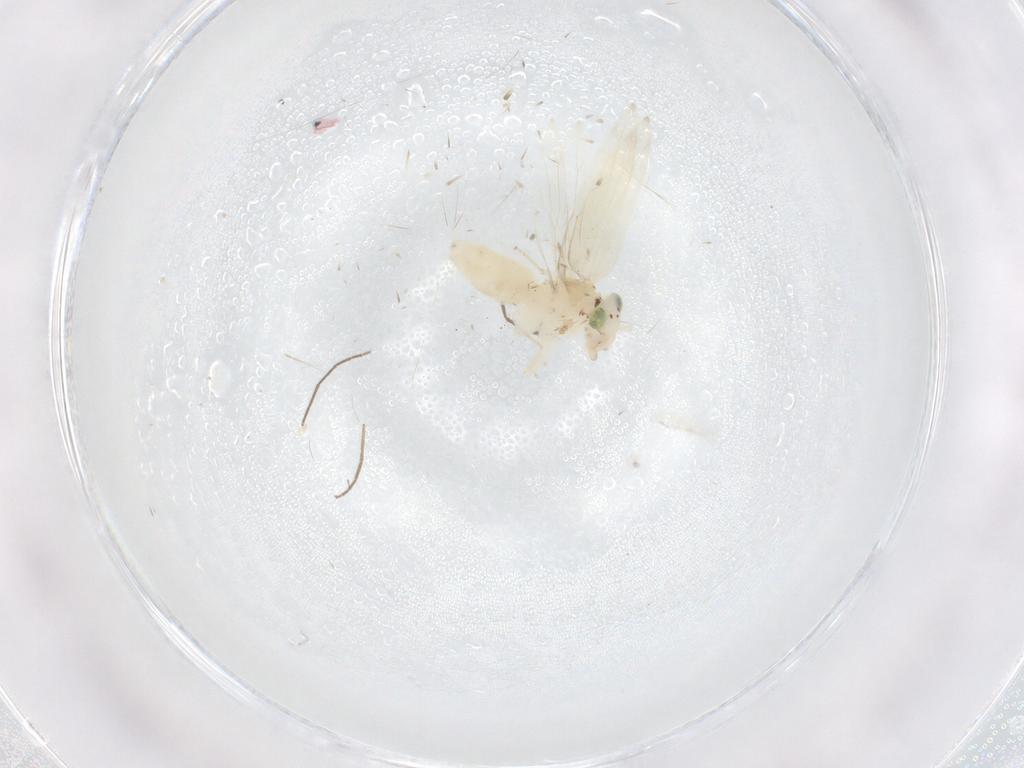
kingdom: Animalia
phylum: Arthropoda
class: Insecta
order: Psocodea
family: Lepidopsocidae
